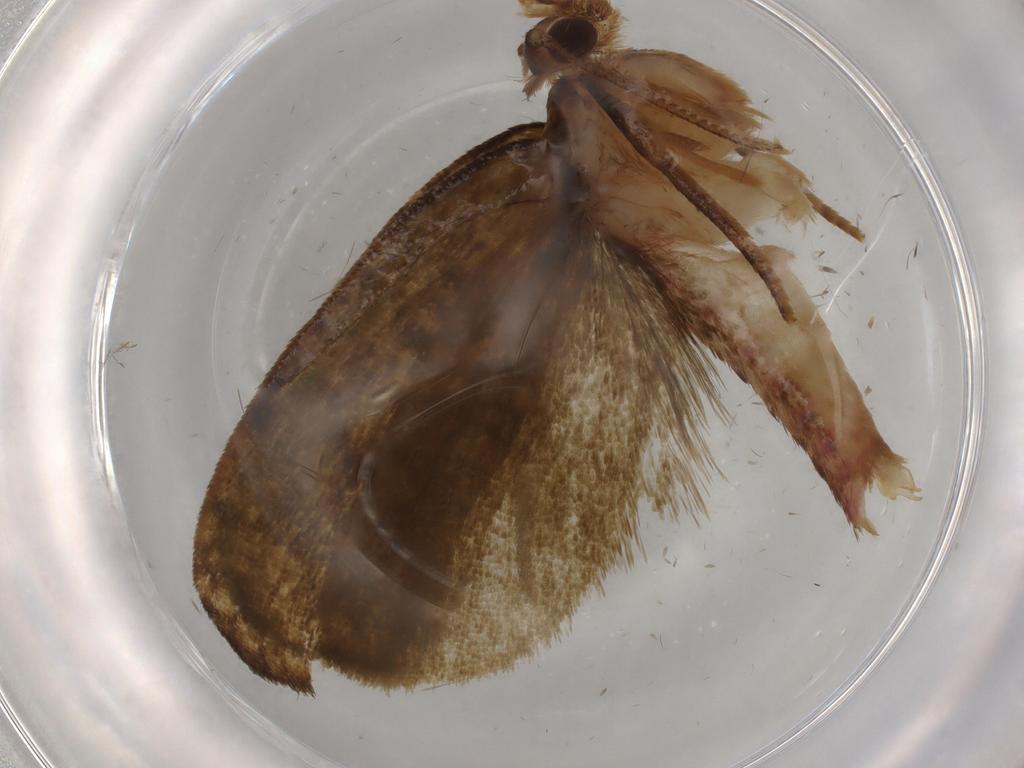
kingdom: Animalia
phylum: Arthropoda
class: Insecta
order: Lepidoptera
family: Geometridae
